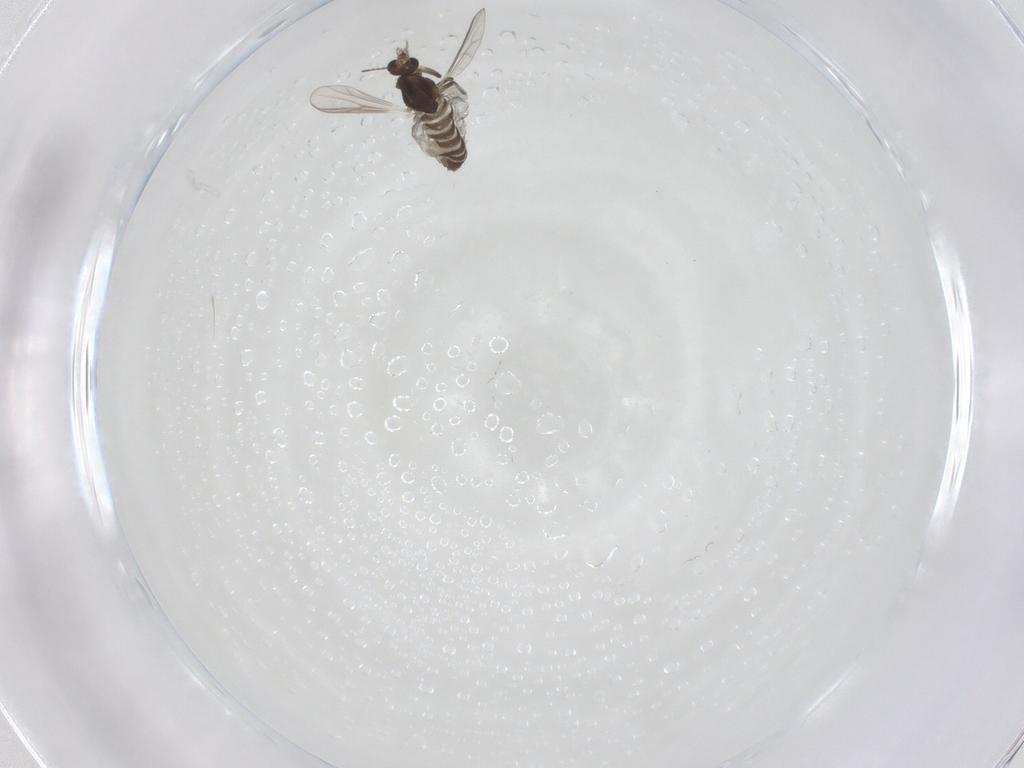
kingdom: Animalia
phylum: Arthropoda
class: Insecta
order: Diptera
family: Chironomidae
